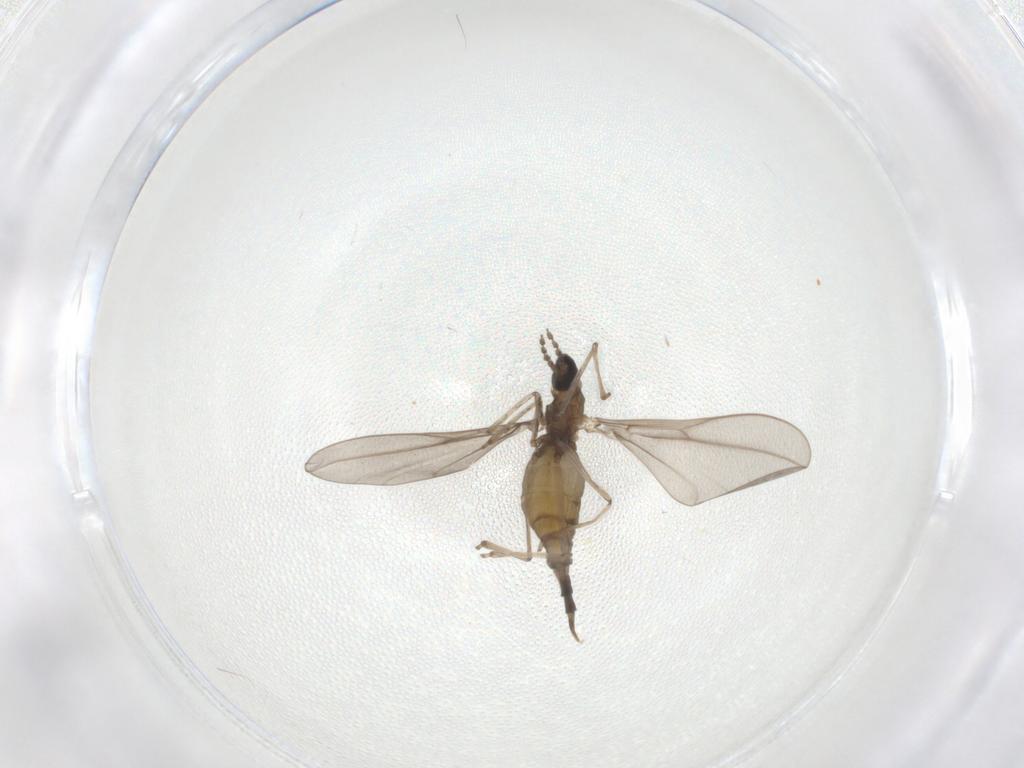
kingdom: Animalia
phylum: Arthropoda
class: Insecta
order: Diptera
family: Cecidomyiidae
